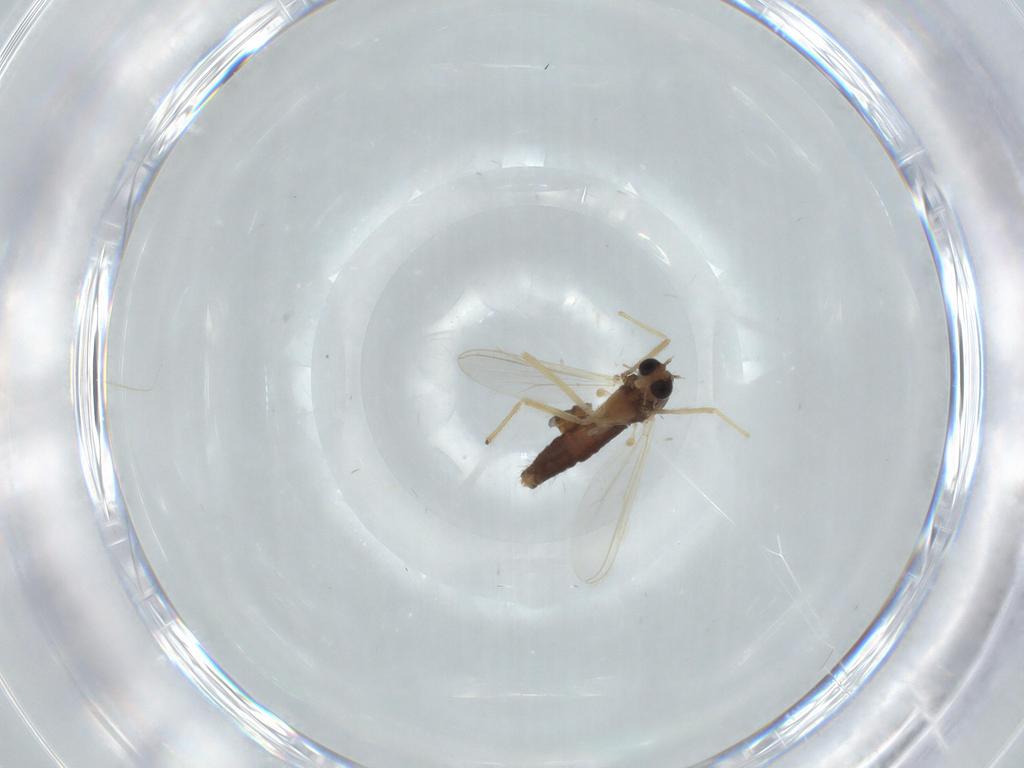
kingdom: Animalia
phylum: Arthropoda
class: Insecta
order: Diptera
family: Chironomidae
